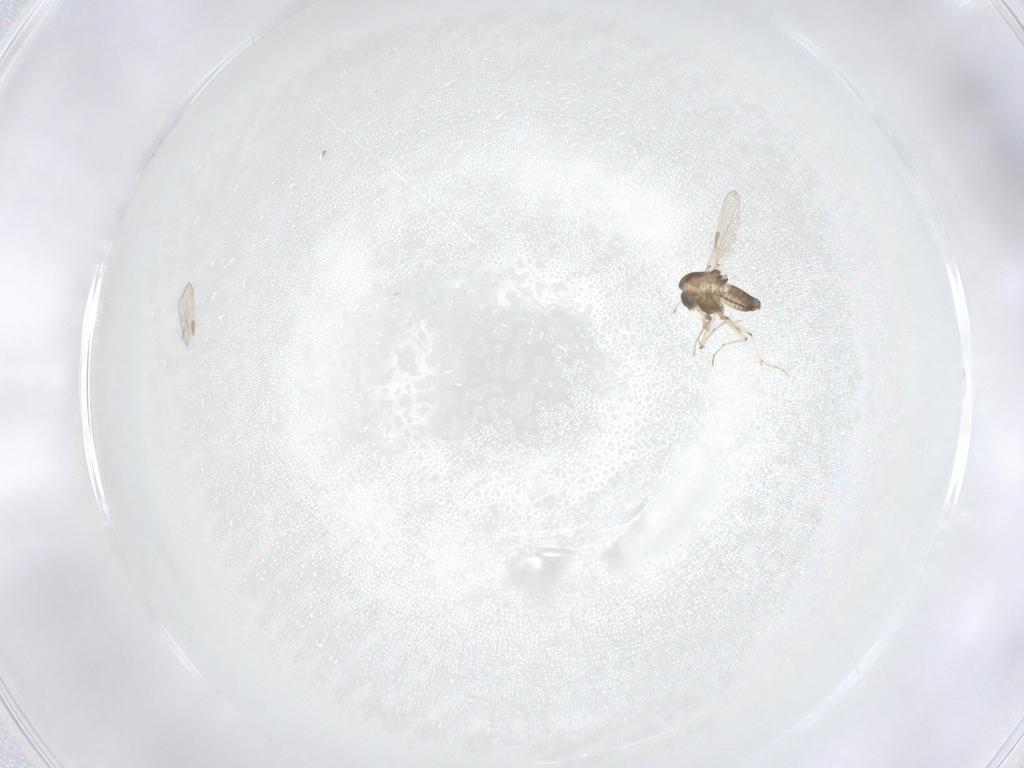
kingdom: Animalia
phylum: Arthropoda
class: Insecta
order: Diptera
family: Chironomidae
